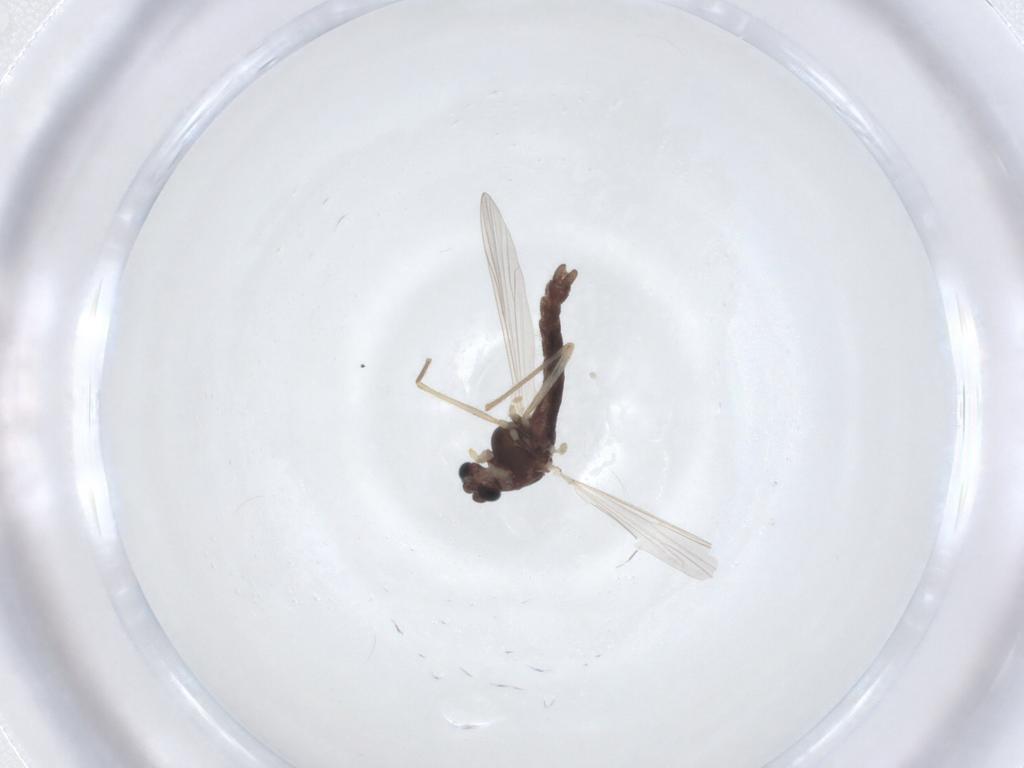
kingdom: Animalia
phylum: Arthropoda
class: Insecta
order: Diptera
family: Chironomidae
